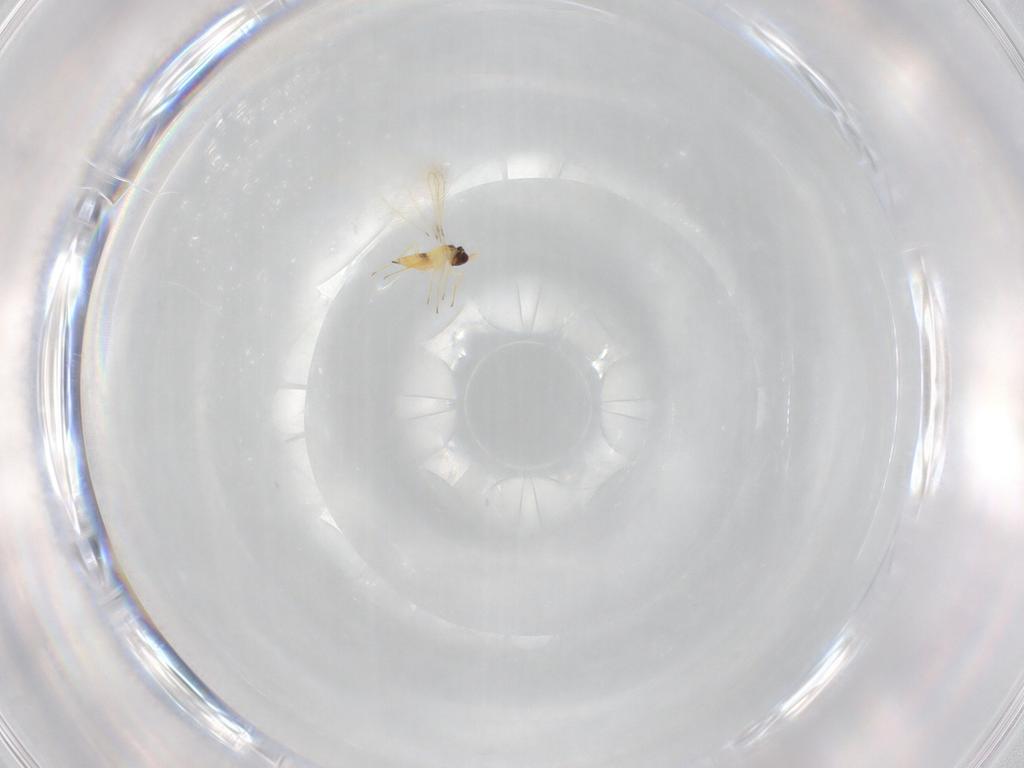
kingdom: Animalia
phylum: Arthropoda
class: Insecta
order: Hymenoptera
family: Mymaridae
